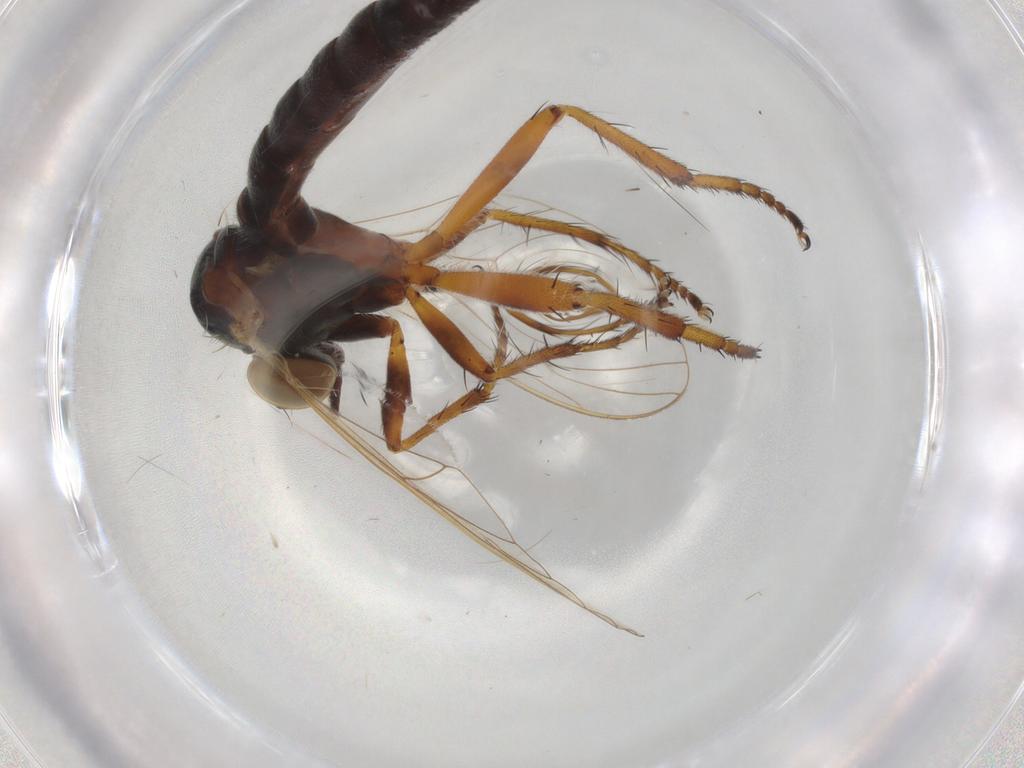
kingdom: Animalia
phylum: Arthropoda
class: Insecta
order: Diptera
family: Asilidae
